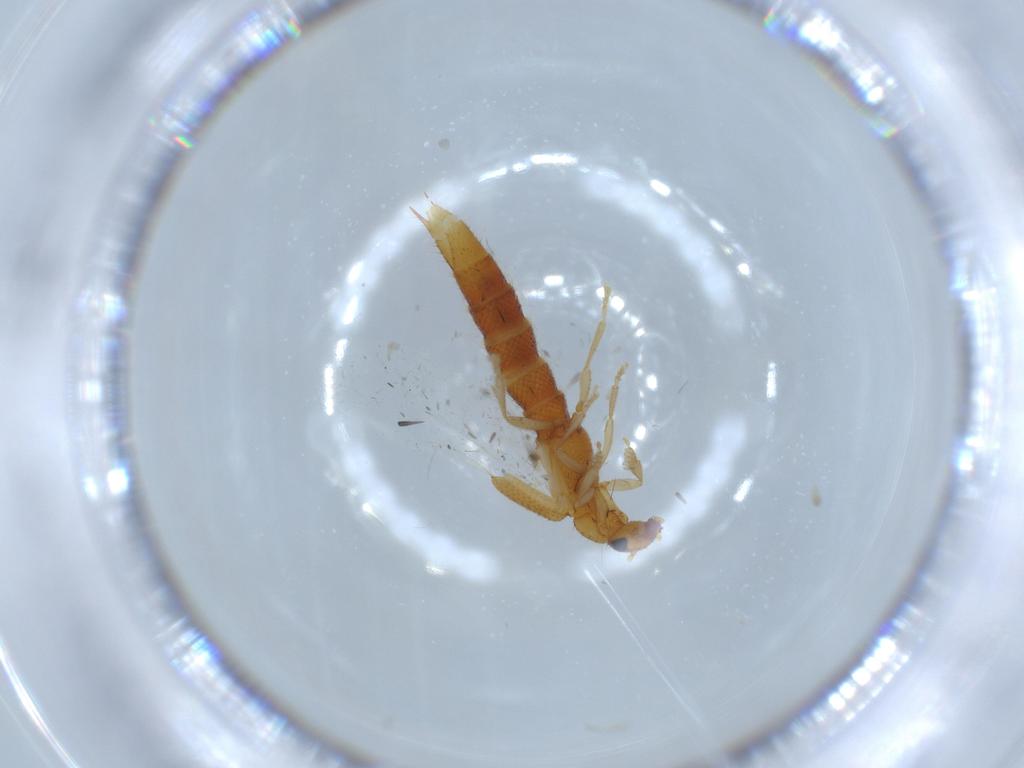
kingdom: Animalia
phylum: Arthropoda
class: Insecta
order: Coleoptera
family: Staphylinidae
